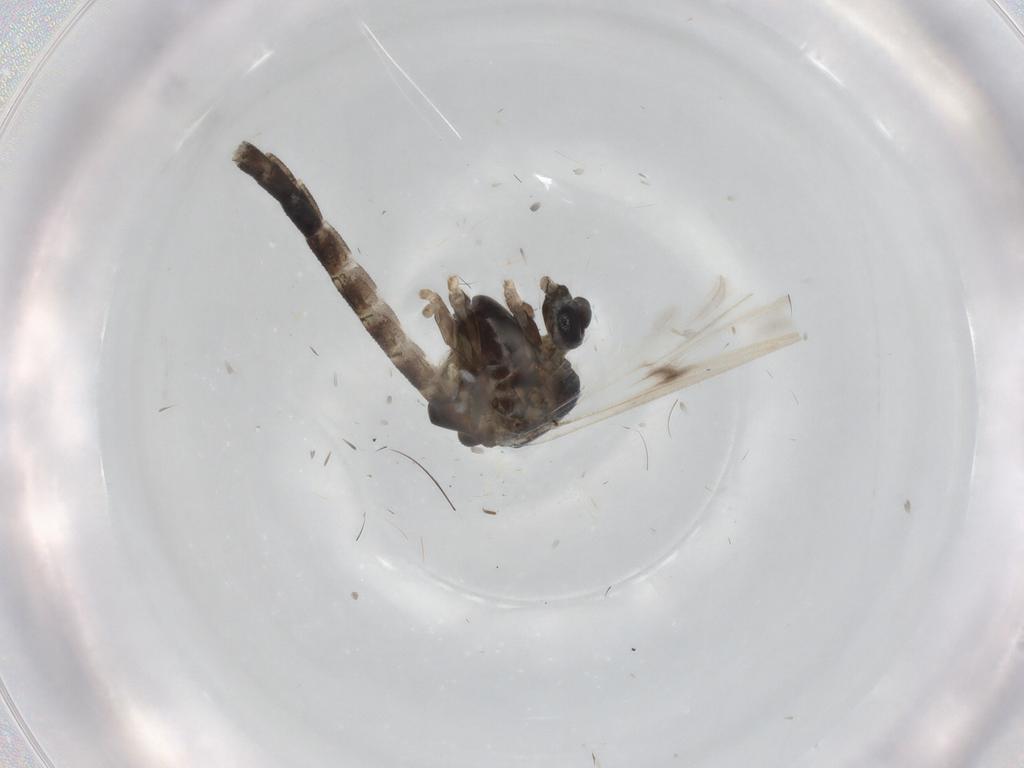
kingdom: Animalia
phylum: Arthropoda
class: Insecta
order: Diptera
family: Chironomidae
